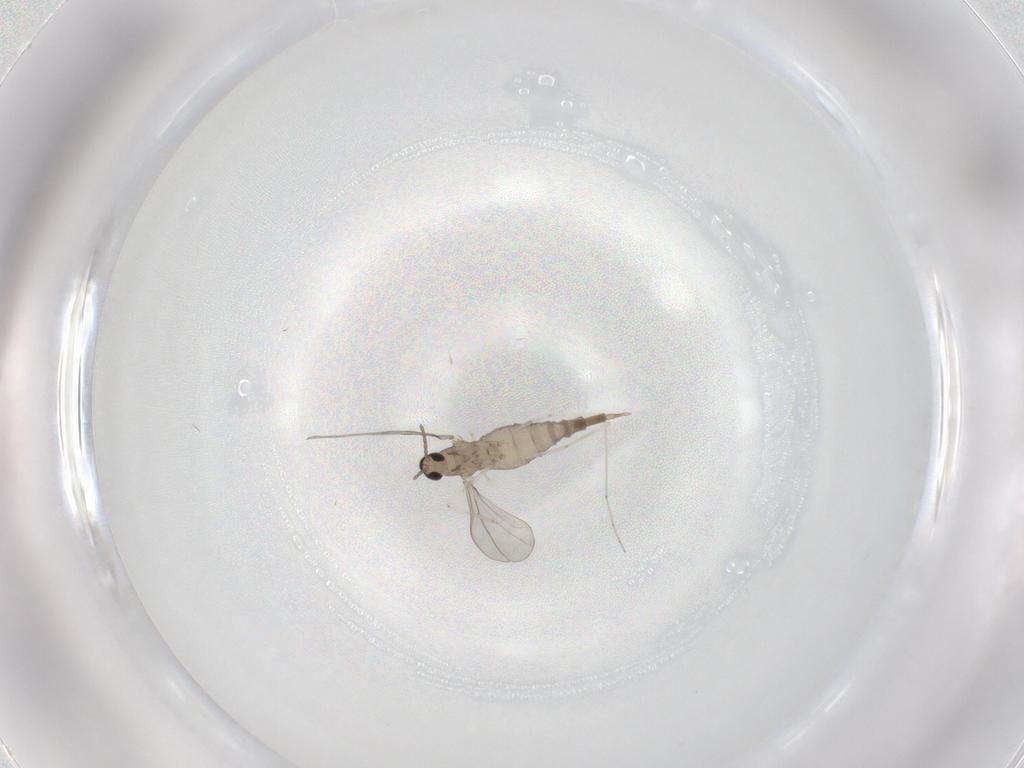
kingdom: Animalia
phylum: Arthropoda
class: Insecta
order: Diptera
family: Cecidomyiidae
